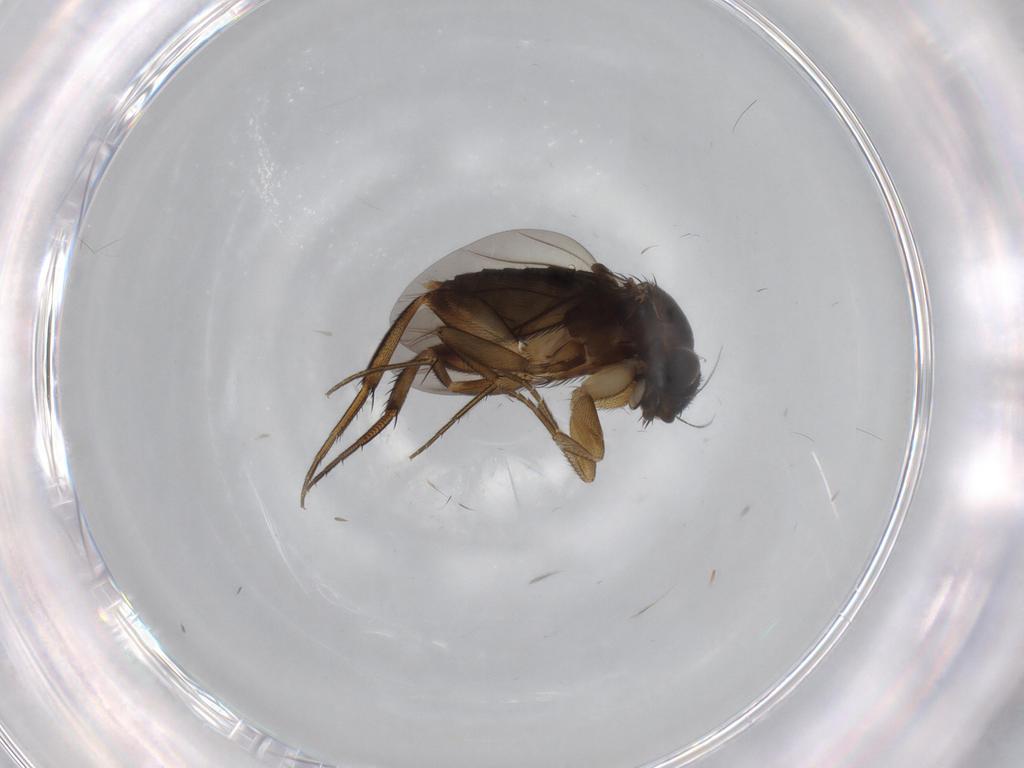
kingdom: Animalia
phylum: Arthropoda
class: Insecta
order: Diptera
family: Phoridae
